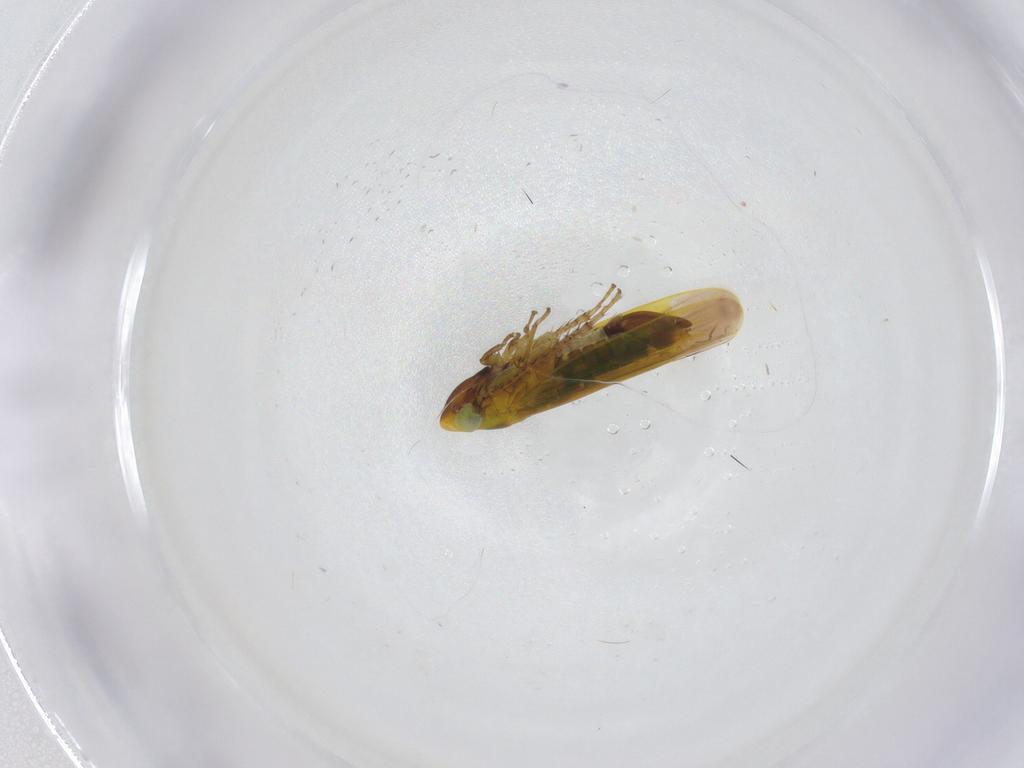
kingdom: Animalia
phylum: Arthropoda
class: Insecta
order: Hemiptera
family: Cicadellidae
